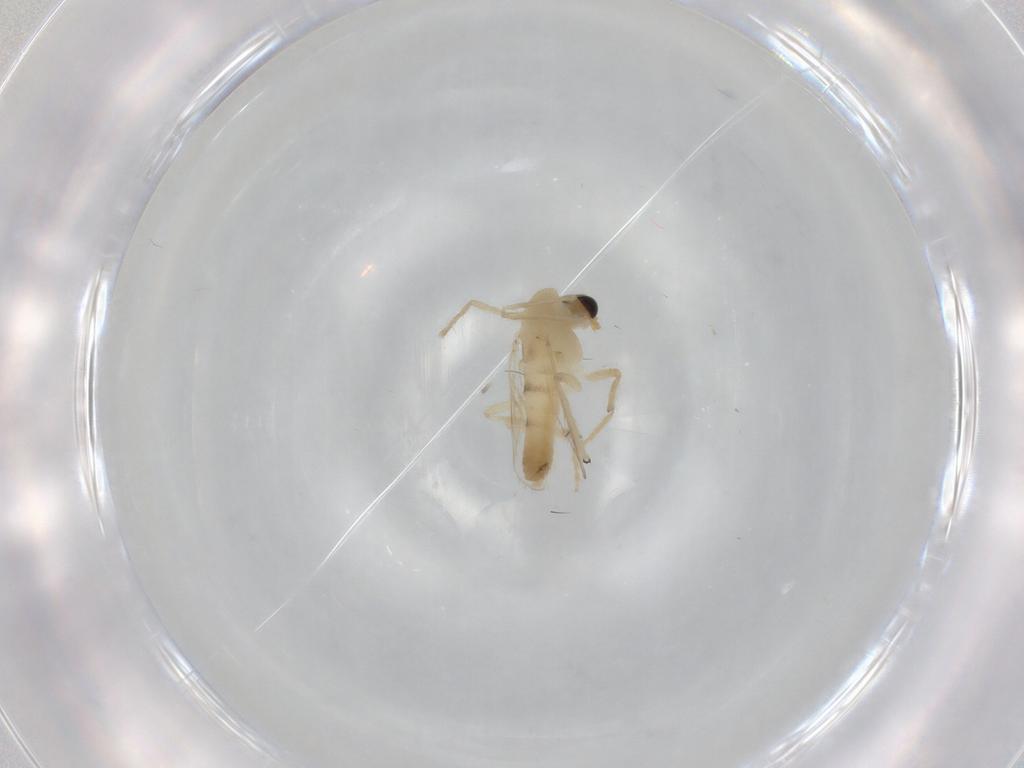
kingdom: Animalia
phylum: Arthropoda
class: Insecta
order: Diptera
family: Chironomidae
